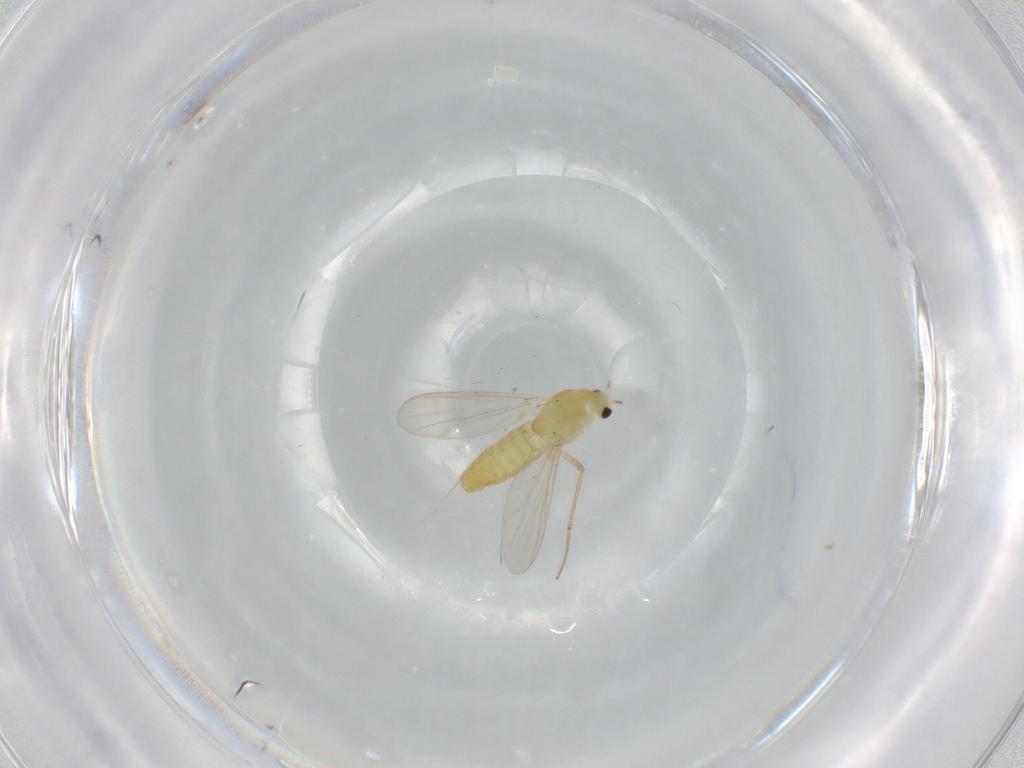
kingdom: Animalia
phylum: Arthropoda
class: Insecta
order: Diptera
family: Chironomidae
